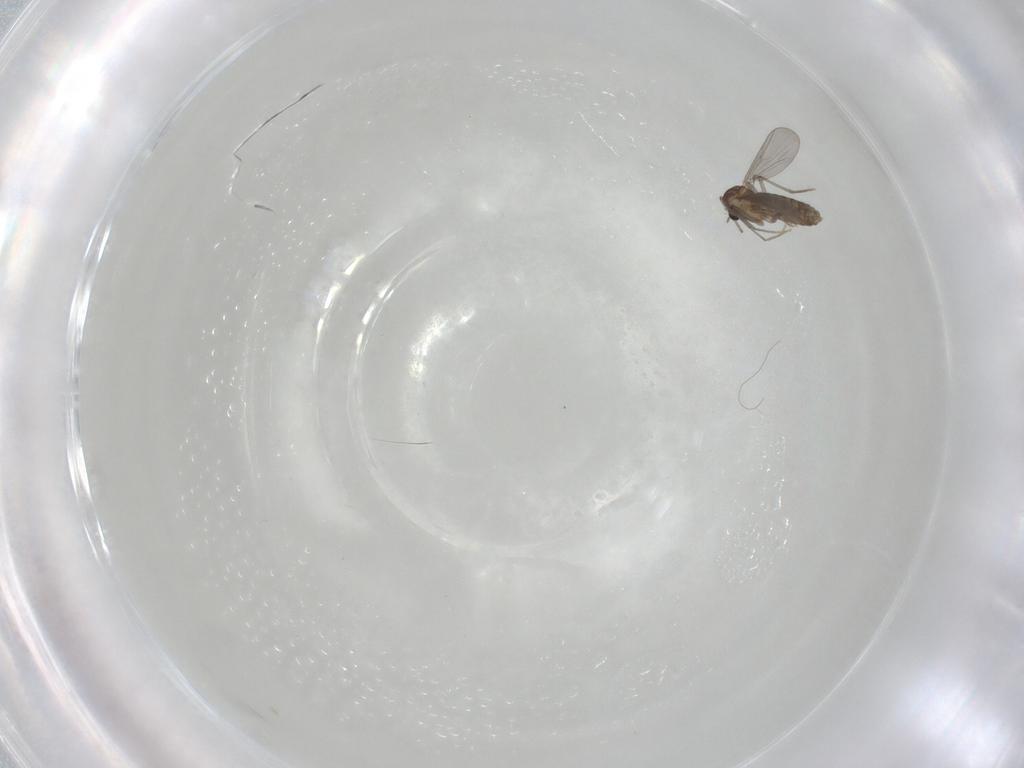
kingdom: Animalia
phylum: Arthropoda
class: Insecta
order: Diptera
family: Chironomidae
